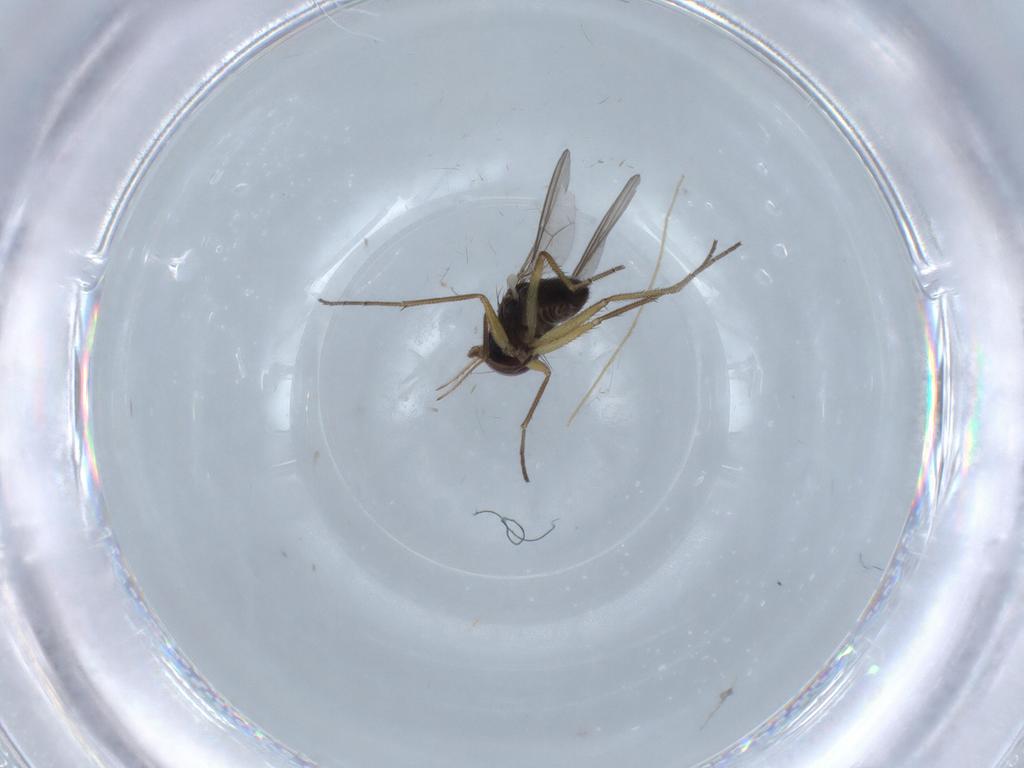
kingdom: Animalia
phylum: Arthropoda
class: Insecta
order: Diptera
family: Dolichopodidae
